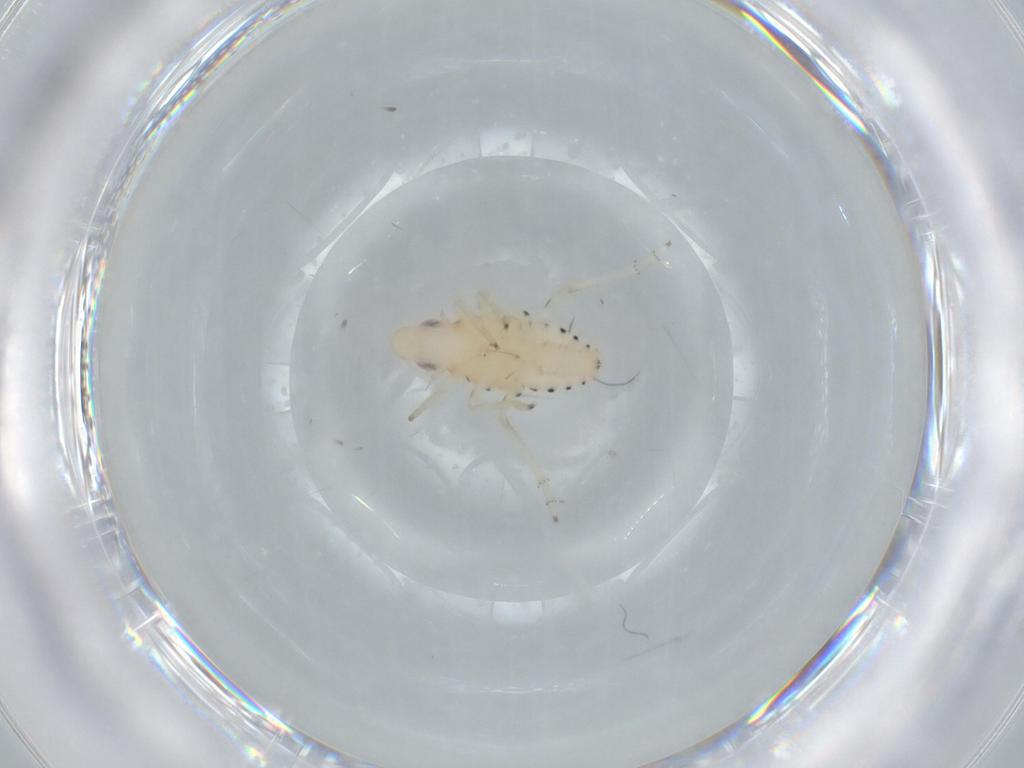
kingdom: Animalia
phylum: Arthropoda
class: Insecta
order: Hemiptera
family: Tropiduchidae
